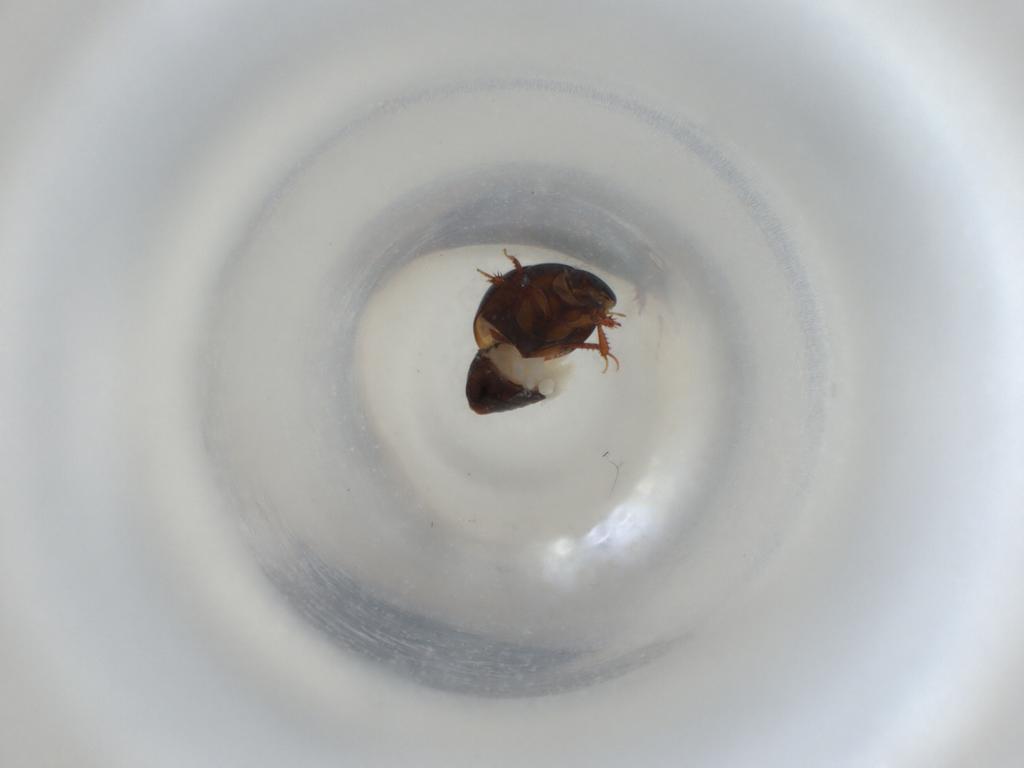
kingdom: Animalia
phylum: Arthropoda
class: Insecta
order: Coleoptera
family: Hydrophilidae
